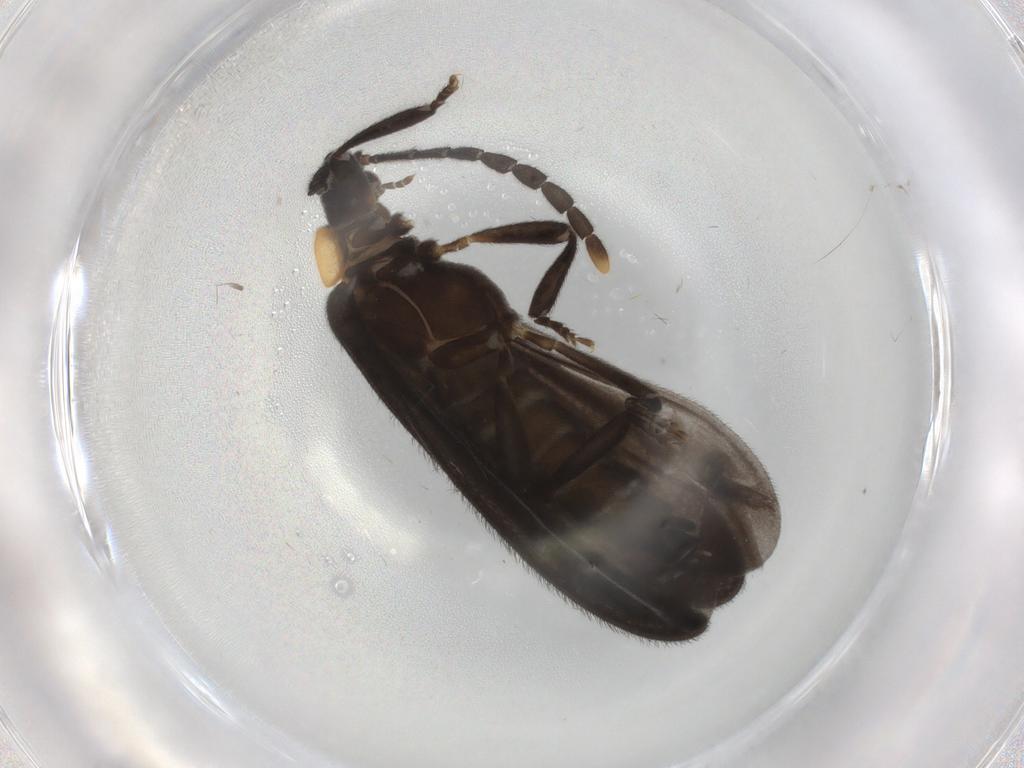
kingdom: Animalia
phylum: Arthropoda
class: Insecta
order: Coleoptera
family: Lycidae
